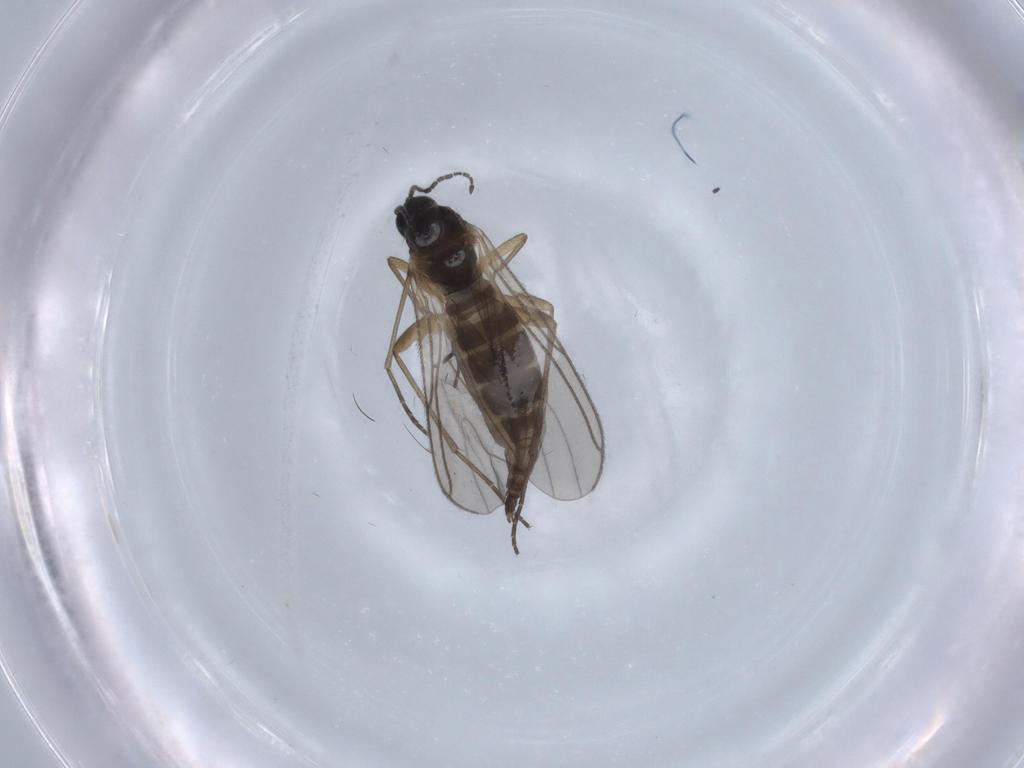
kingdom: Animalia
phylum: Arthropoda
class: Insecta
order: Diptera
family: Sciaridae
